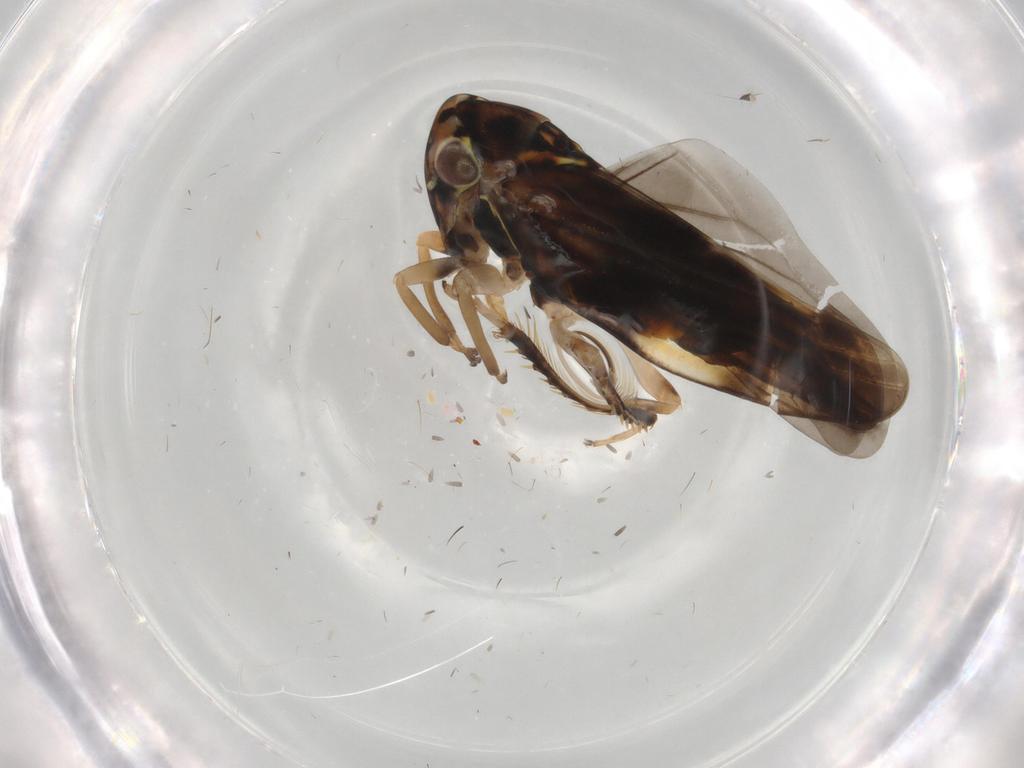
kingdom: Animalia
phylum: Arthropoda
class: Insecta
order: Hemiptera
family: Cicadellidae
